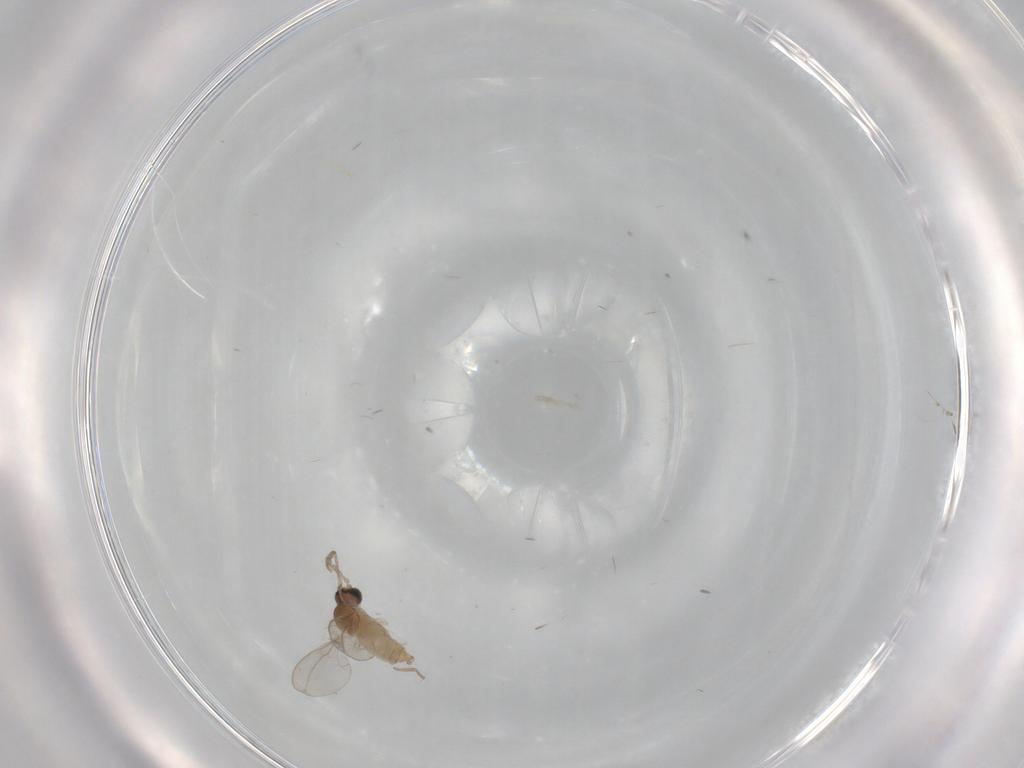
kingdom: Animalia
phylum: Arthropoda
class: Insecta
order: Diptera
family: Cecidomyiidae
